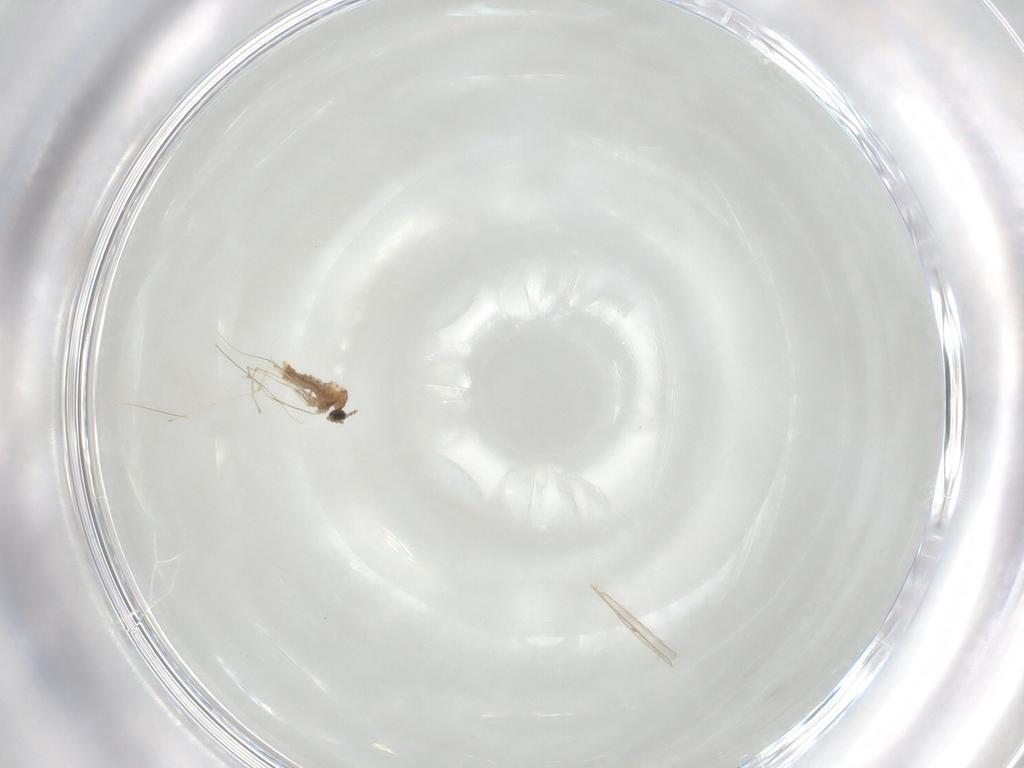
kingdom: Animalia
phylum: Arthropoda
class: Insecta
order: Diptera
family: Cecidomyiidae
